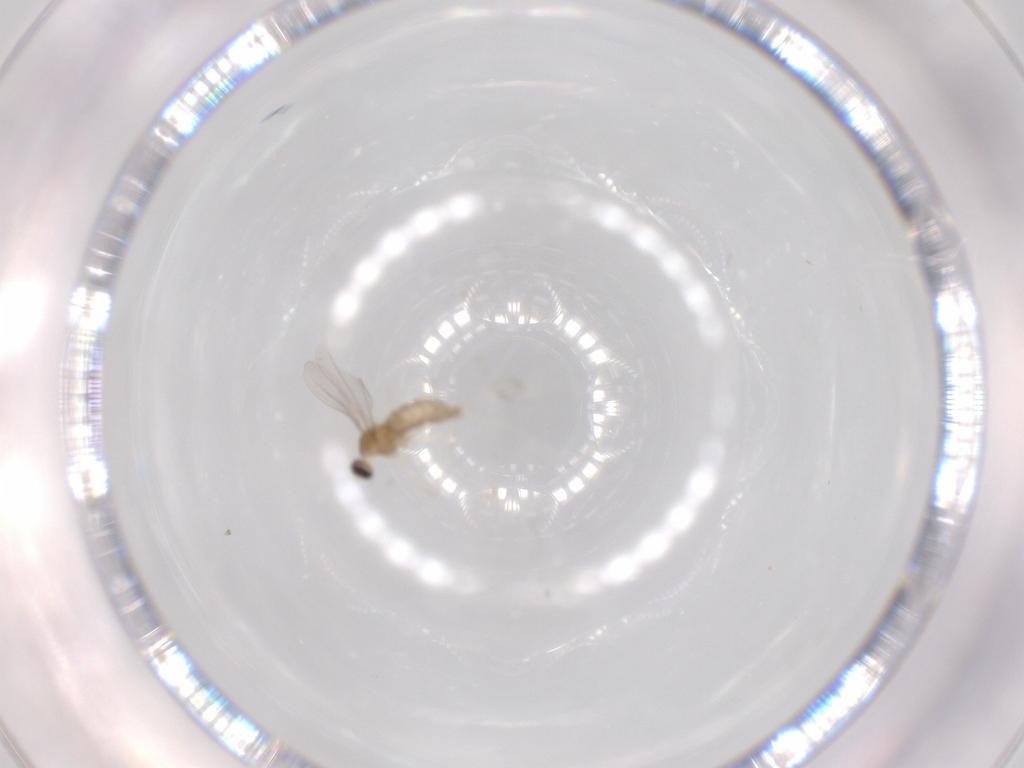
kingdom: Animalia
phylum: Arthropoda
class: Insecta
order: Diptera
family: Cecidomyiidae
